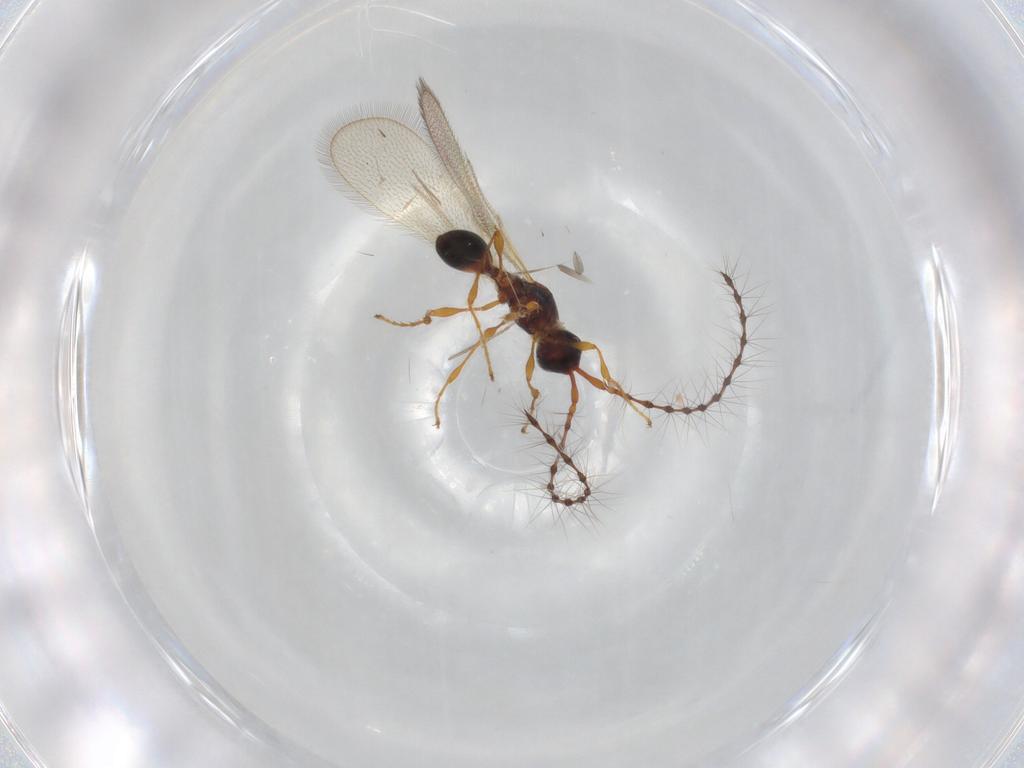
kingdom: Animalia
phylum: Arthropoda
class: Insecta
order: Hymenoptera
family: Diapriidae
